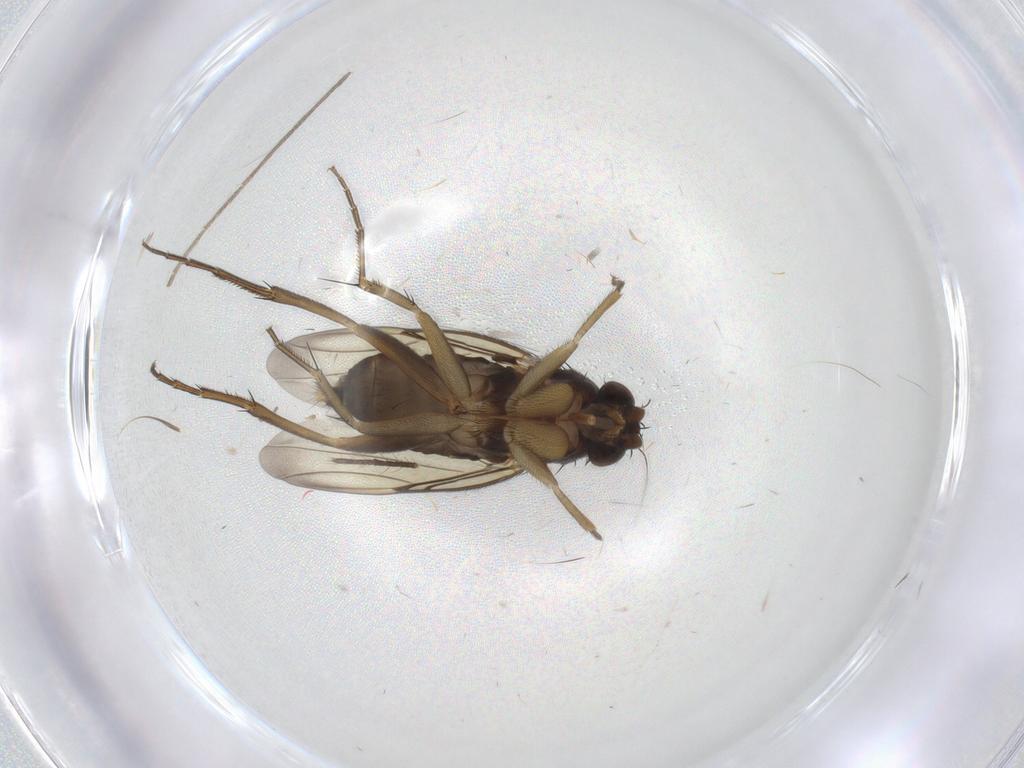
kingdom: Animalia
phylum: Arthropoda
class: Insecta
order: Diptera
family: Phoridae
